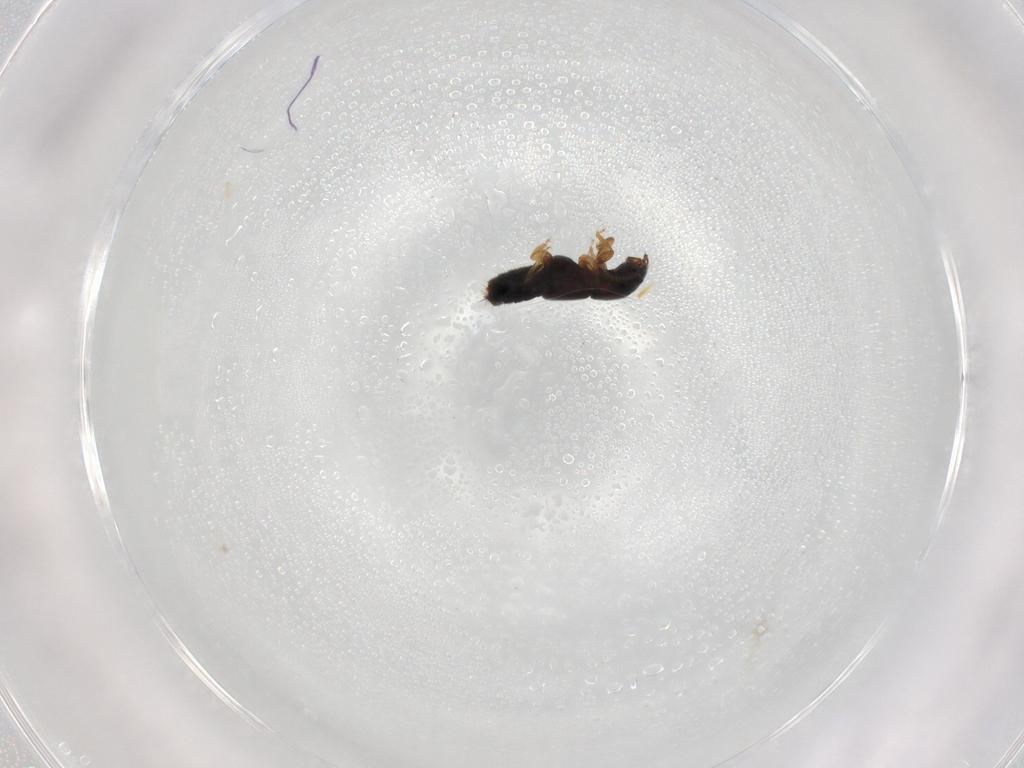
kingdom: Animalia
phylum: Arthropoda
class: Insecta
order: Coleoptera
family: Staphylinidae
